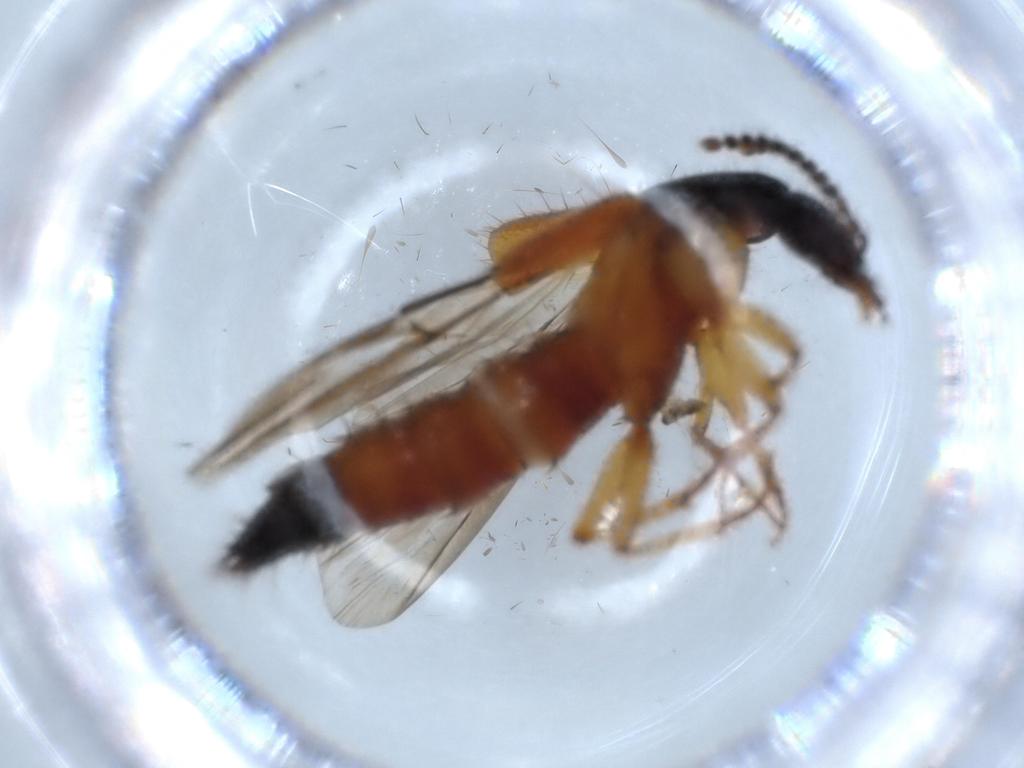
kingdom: Animalia
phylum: Arthropoda
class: Insecta
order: Coleoptera
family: Staphylinidae
